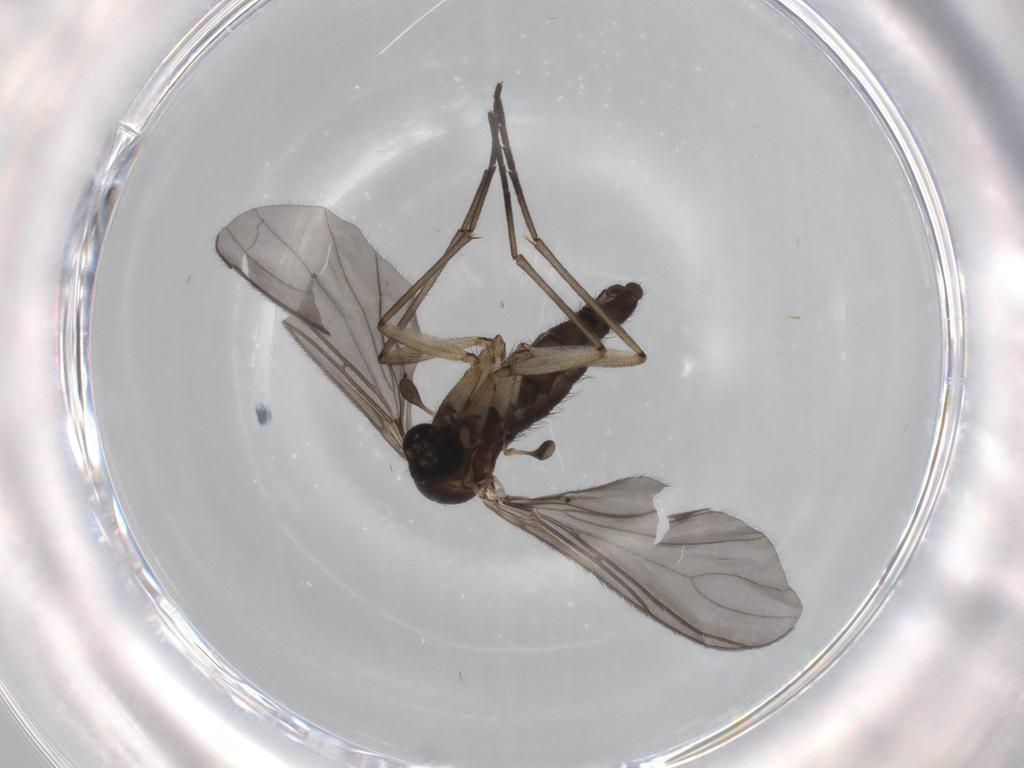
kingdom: Animalia
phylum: Arthropoda
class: Insecta
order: Diptera
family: Sciaridae
